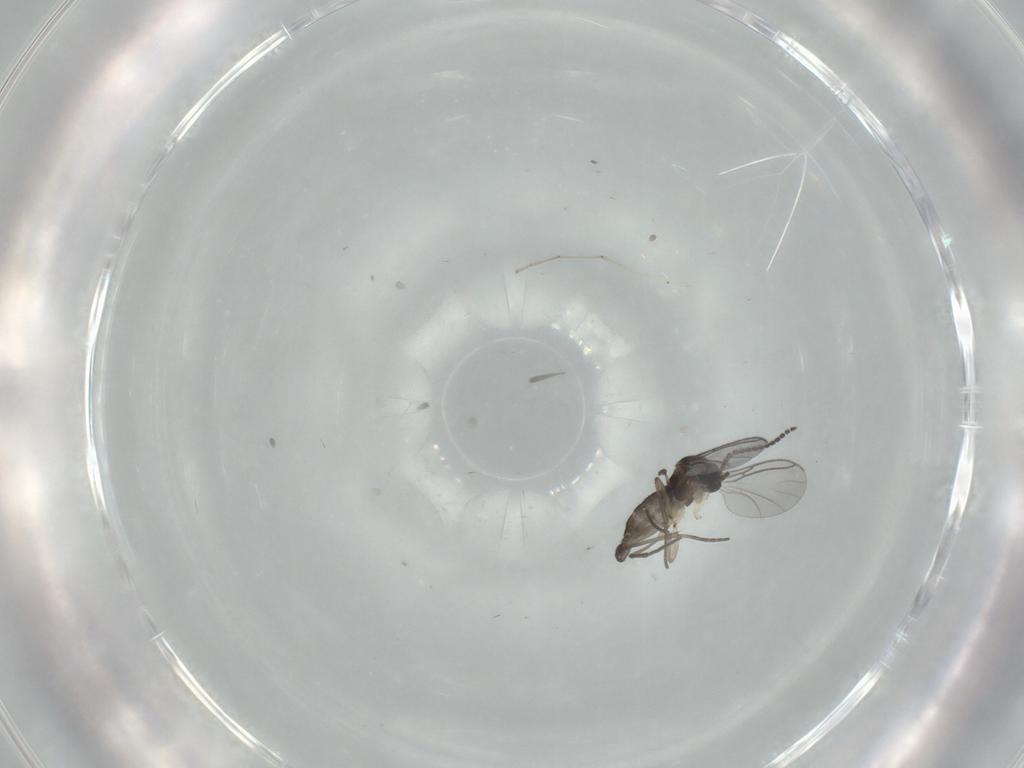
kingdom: Animalia
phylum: Arthropoda
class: Insecta
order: Diptera
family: Sciaridae
